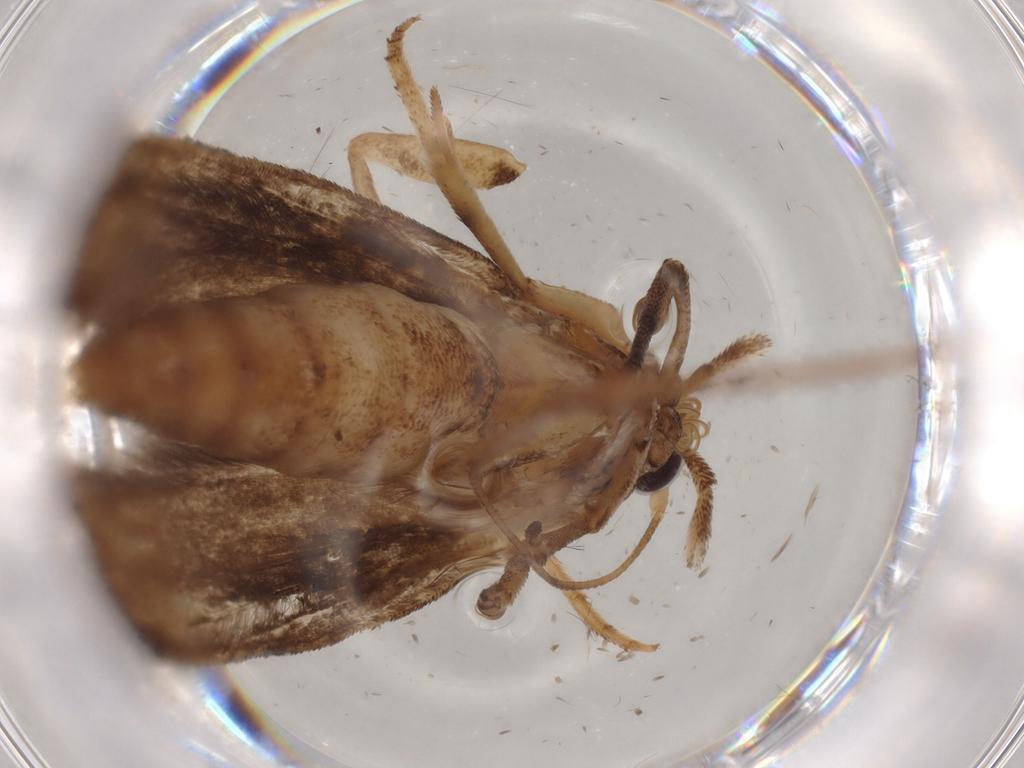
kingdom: Animalia
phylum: Arthropoda
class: Insecta
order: Lepidoptera
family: Yponomeutidae
